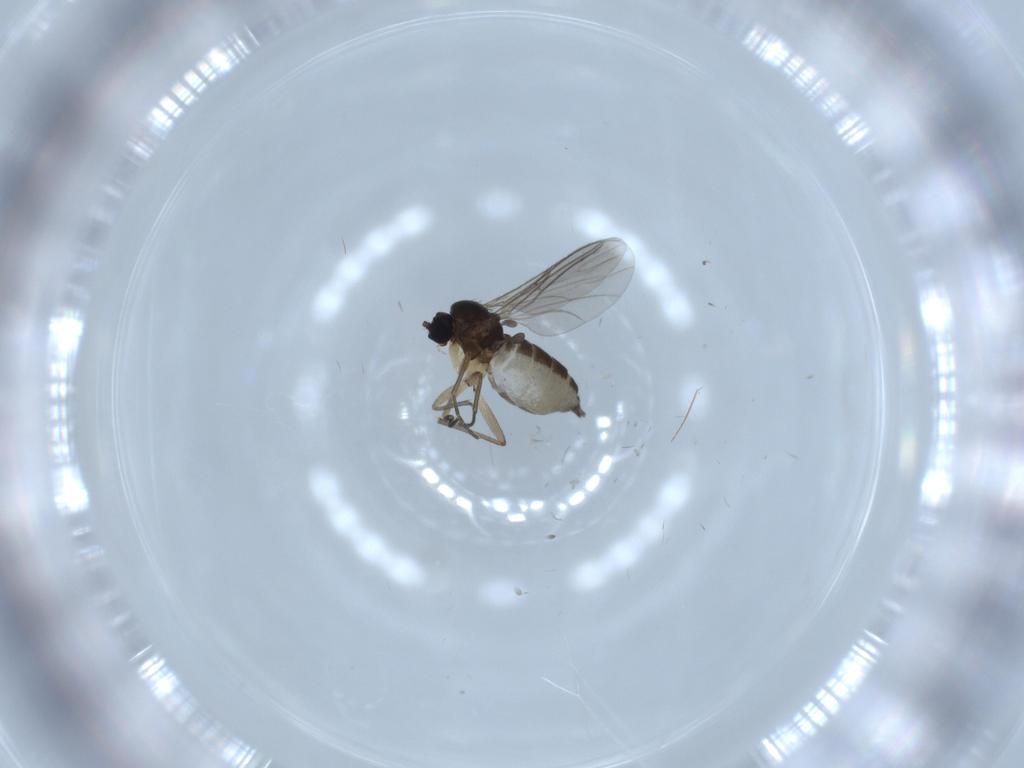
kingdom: Animalia
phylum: Arthropoda
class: Insecta
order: Diptera
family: Sciaridae
